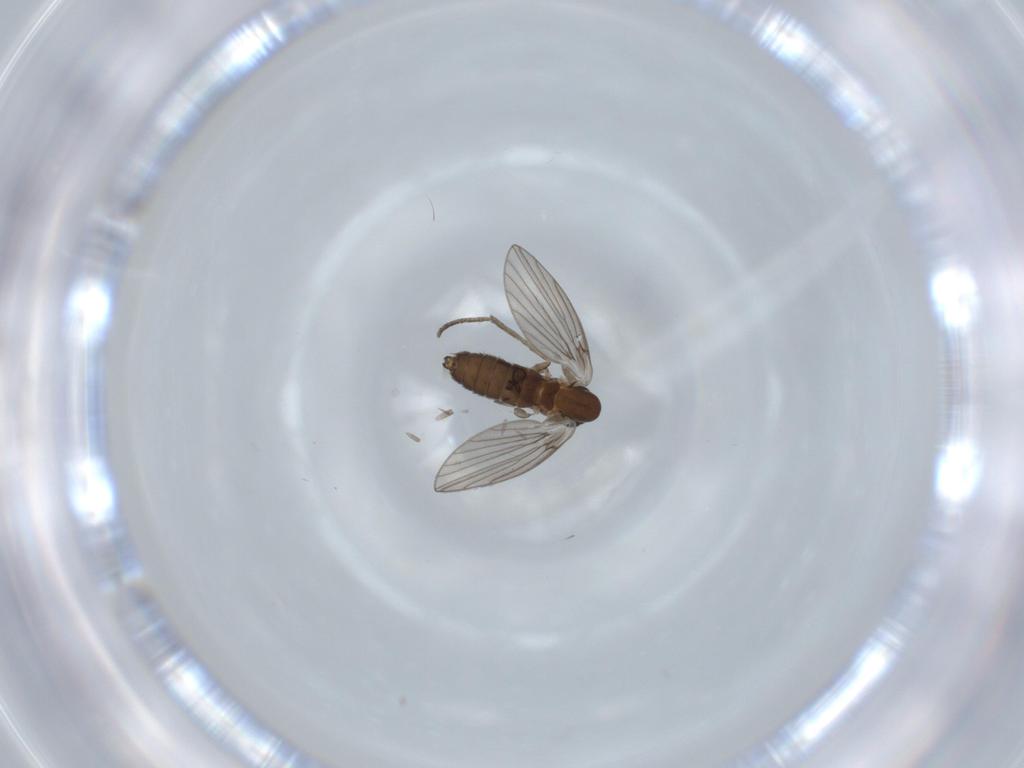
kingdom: Animalia
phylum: Arthropoda
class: Insecta
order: Diptera
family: Psychodidae
